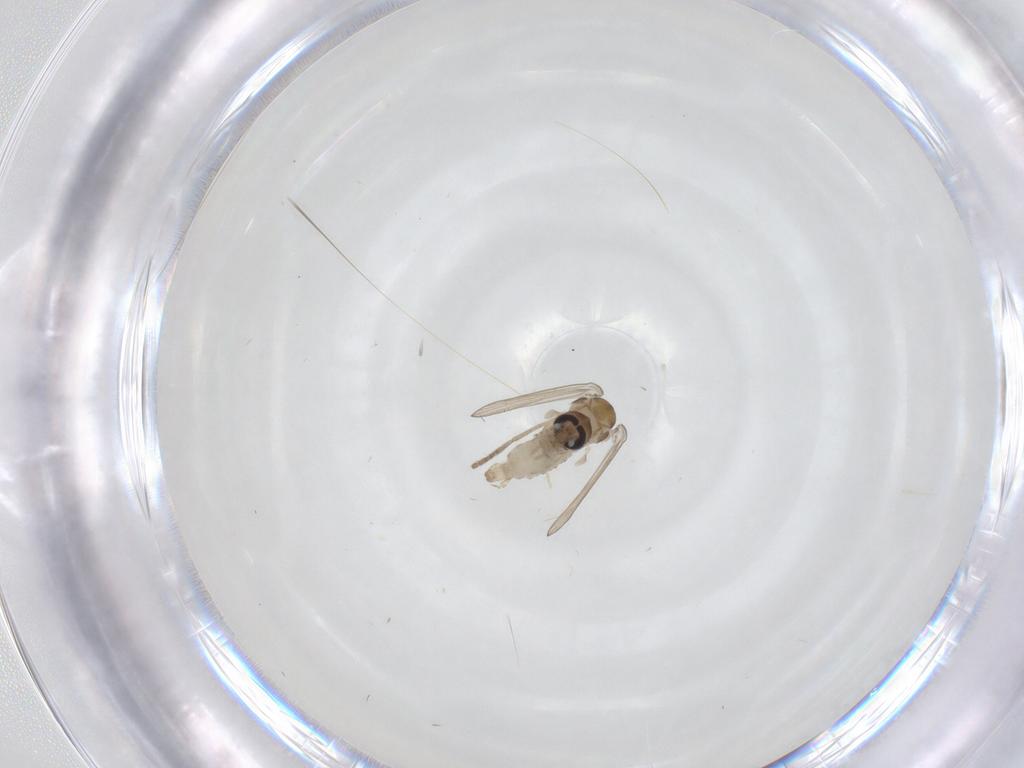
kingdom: Animalia
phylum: Arthropoda
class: Insecta
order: Diptera
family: Psychodidae
